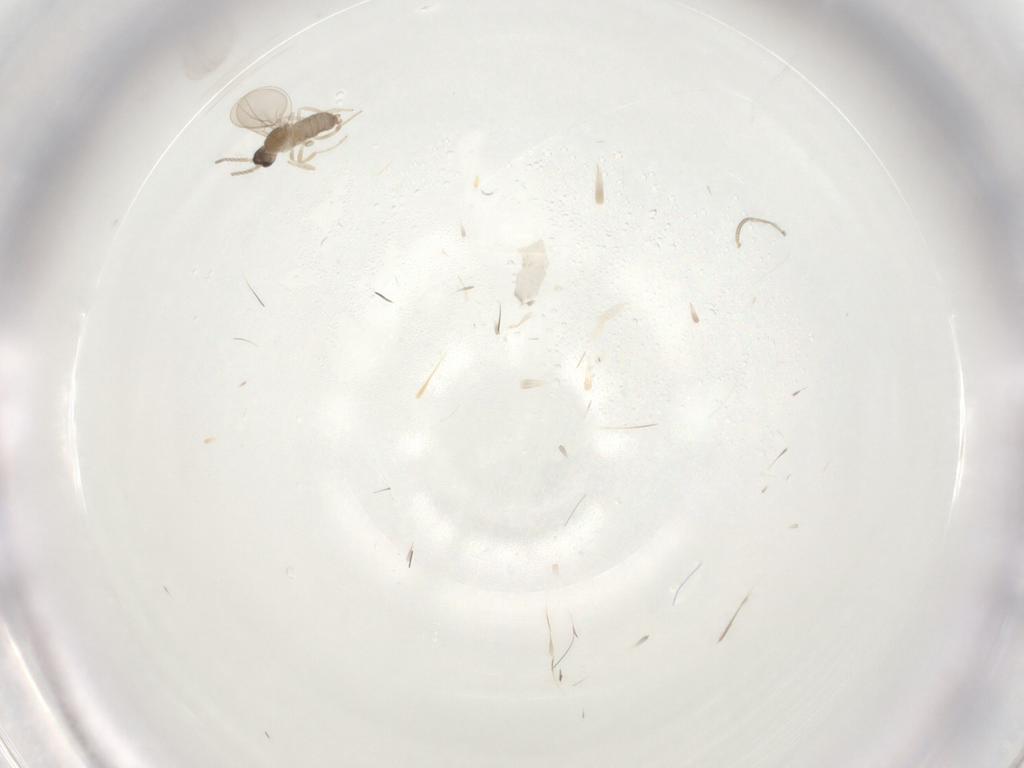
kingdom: Animalia
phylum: Arthropoda
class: Insecta
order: Diptera
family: Cecidomyiidae
